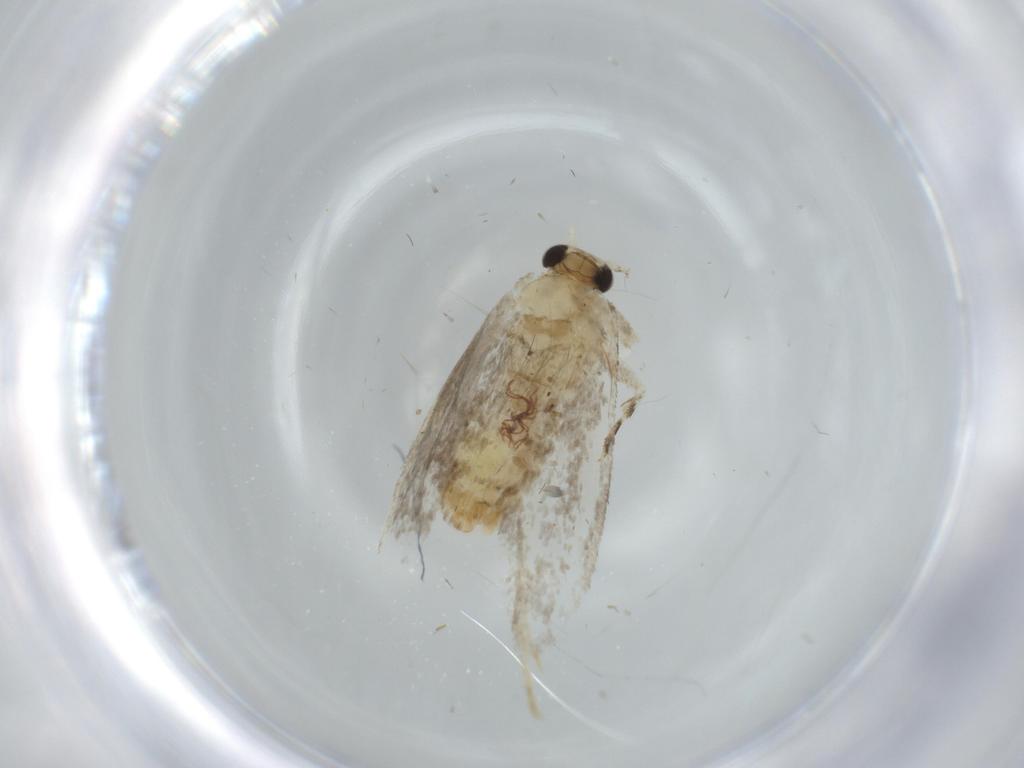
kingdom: Animalia
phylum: Arthropoda
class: Insecta
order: Lepidoptera
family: Tineidae
